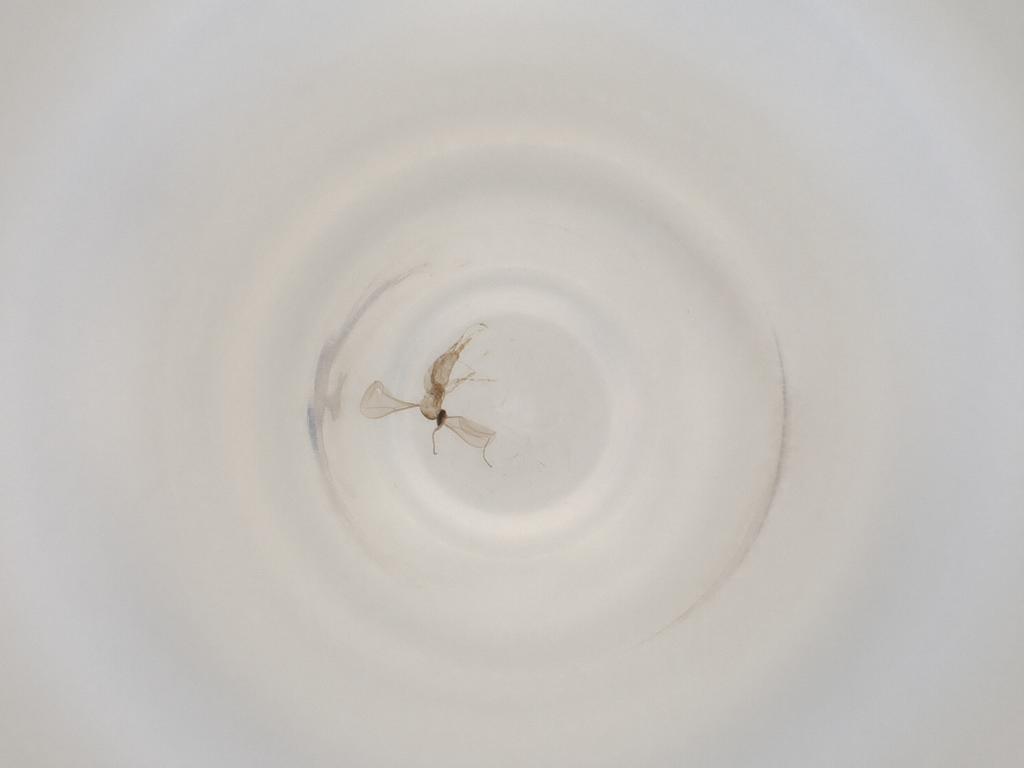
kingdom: Animalia
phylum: Arthropoda
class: Insecta
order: Diptera
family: Cecidomyiidae
